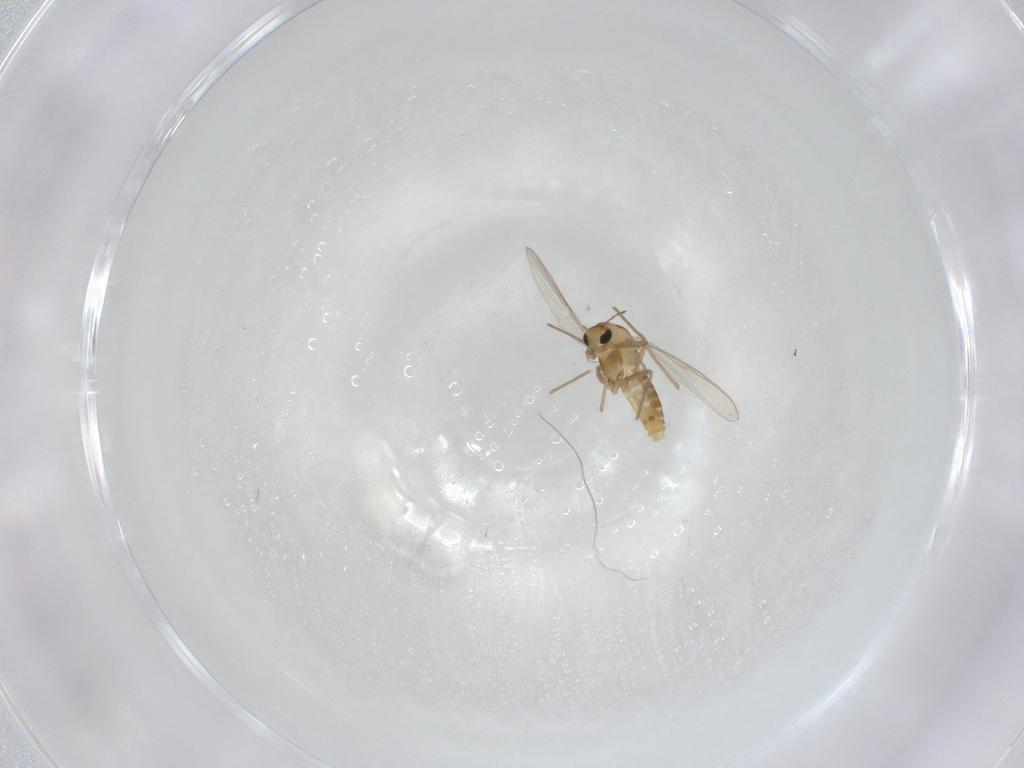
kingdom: Animalia
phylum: Arthropoda
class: Insecta
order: Diptera
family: Chironomidae
